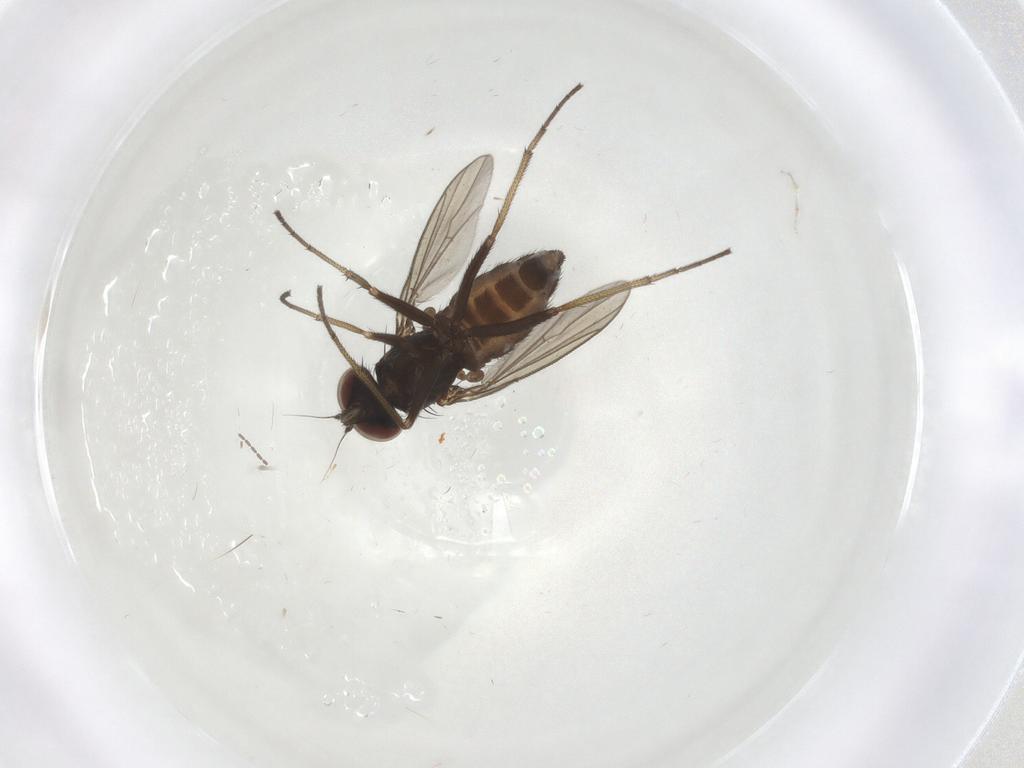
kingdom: Animalia
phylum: Arthropoda
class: Insecta
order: Diptera
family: Dolichopodidae
